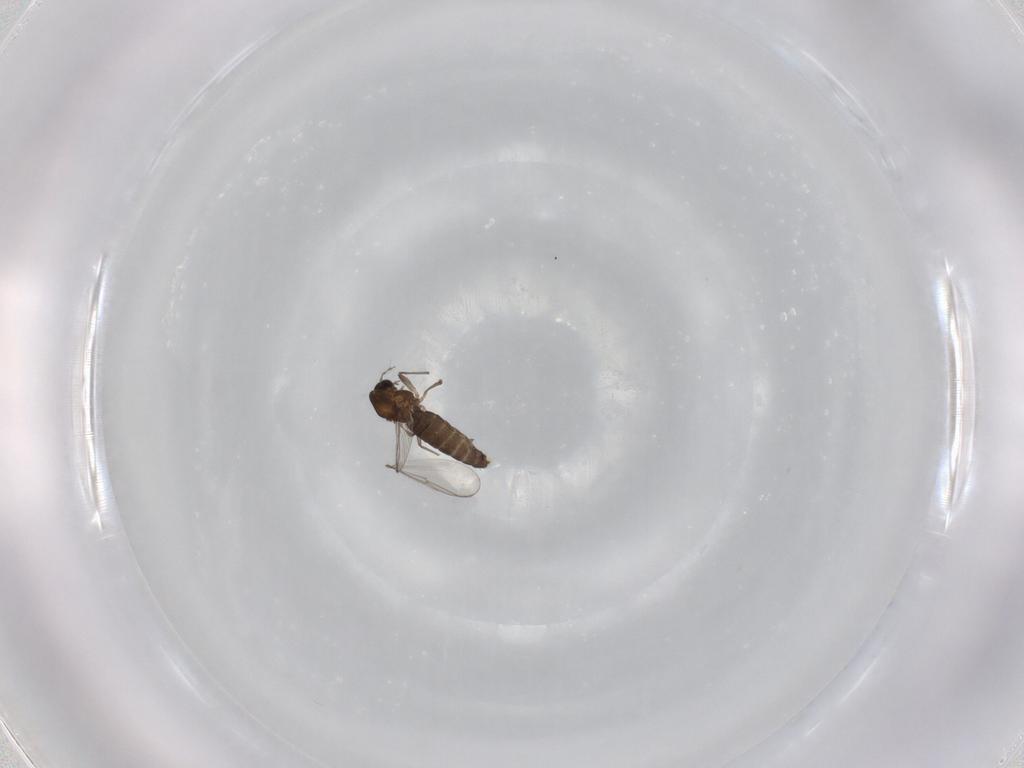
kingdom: Animalia
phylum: Arthropoda
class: Insecta
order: Diptera
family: Chironomidae
